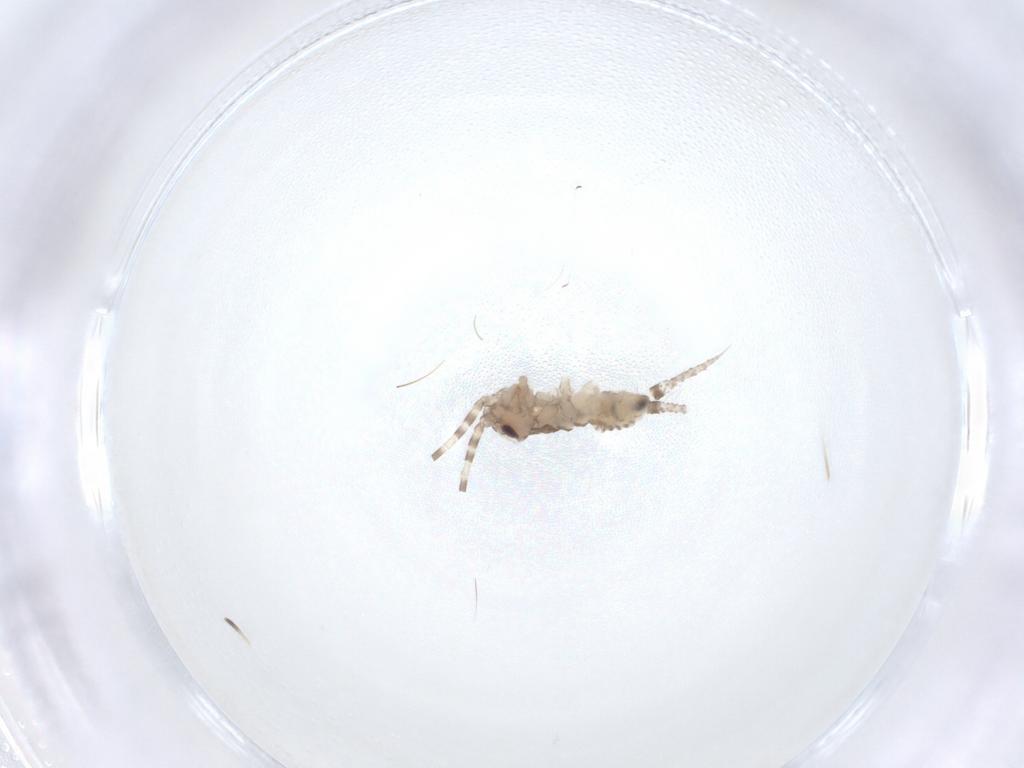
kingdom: Animalia
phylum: Arthropoda
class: Insecta
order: Orthoptera
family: Trigonidiidae
